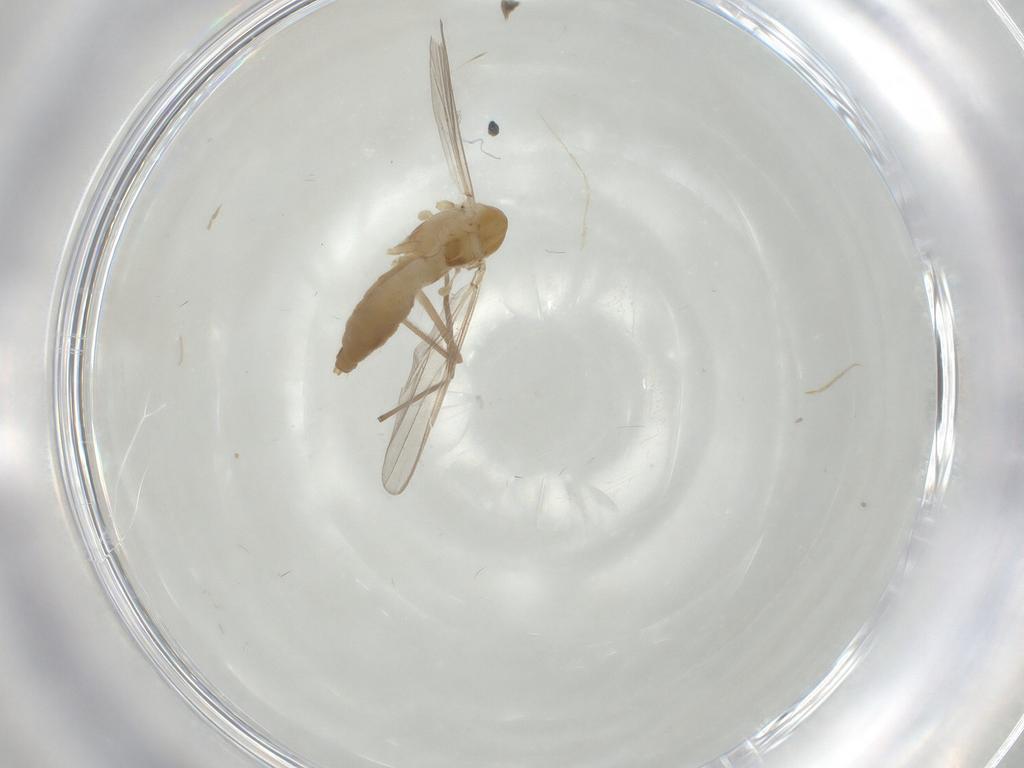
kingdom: Animalia
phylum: Arthropoda
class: Insecta
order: Diptera
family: Chironomidae
